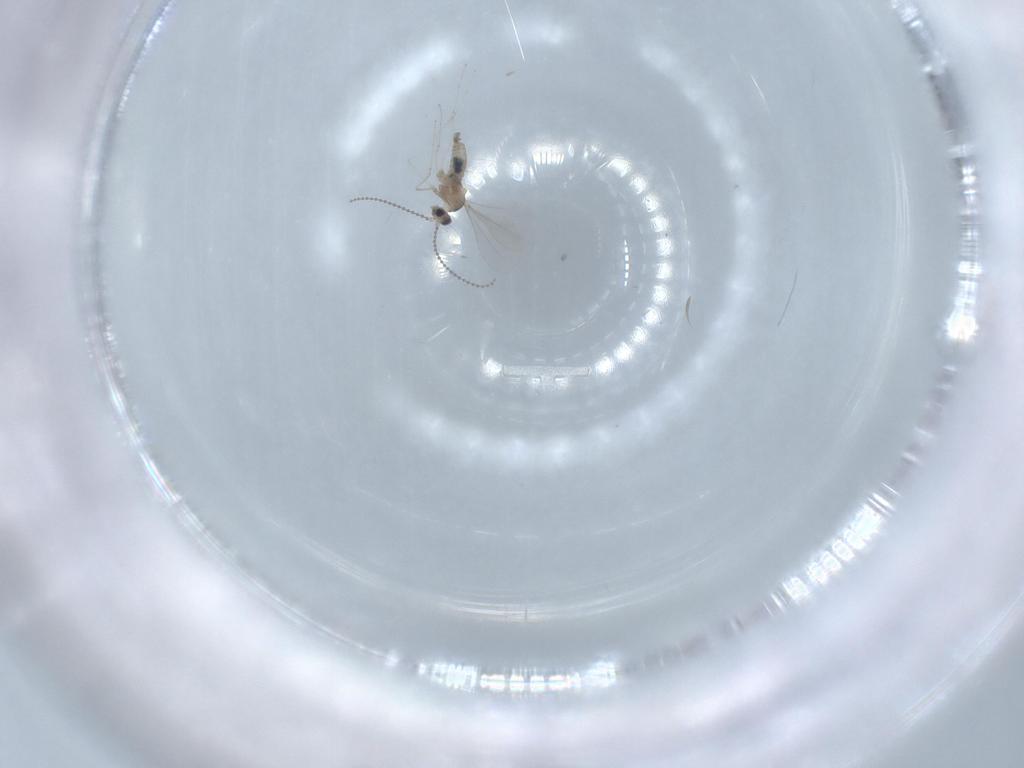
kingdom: Animalia
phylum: Arthropoda
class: Insecta
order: Diptera
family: Cecidomyiidae
